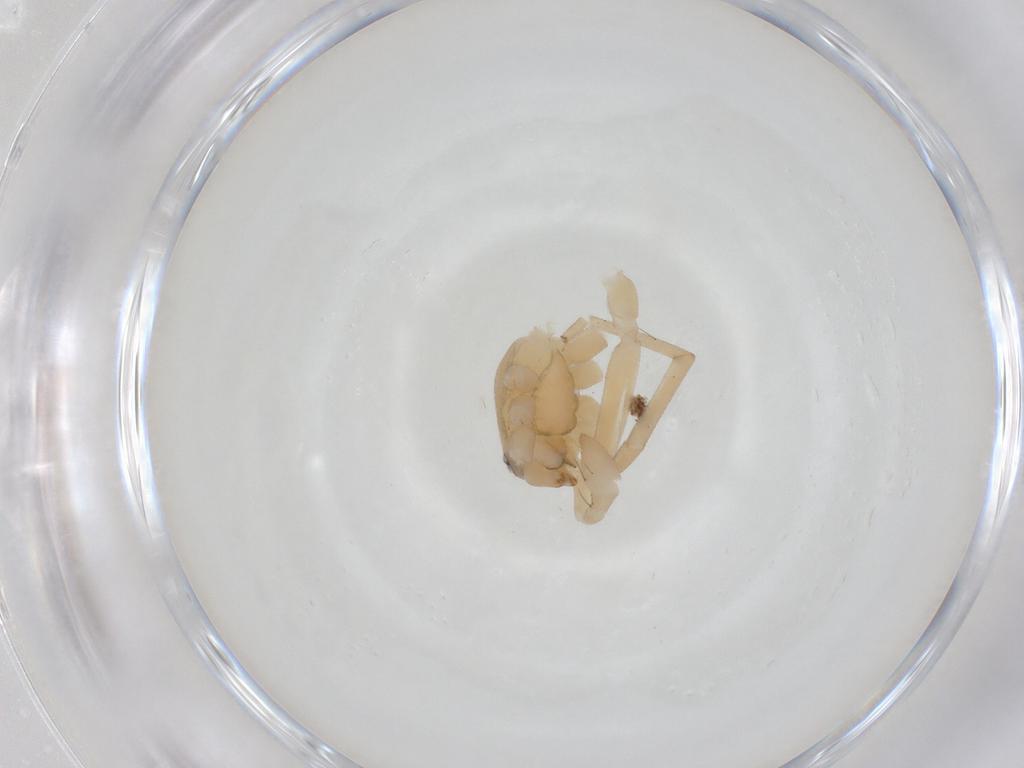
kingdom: Animalia
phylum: Arthropoda
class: Arachnida
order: Araneae
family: Corinnidae
